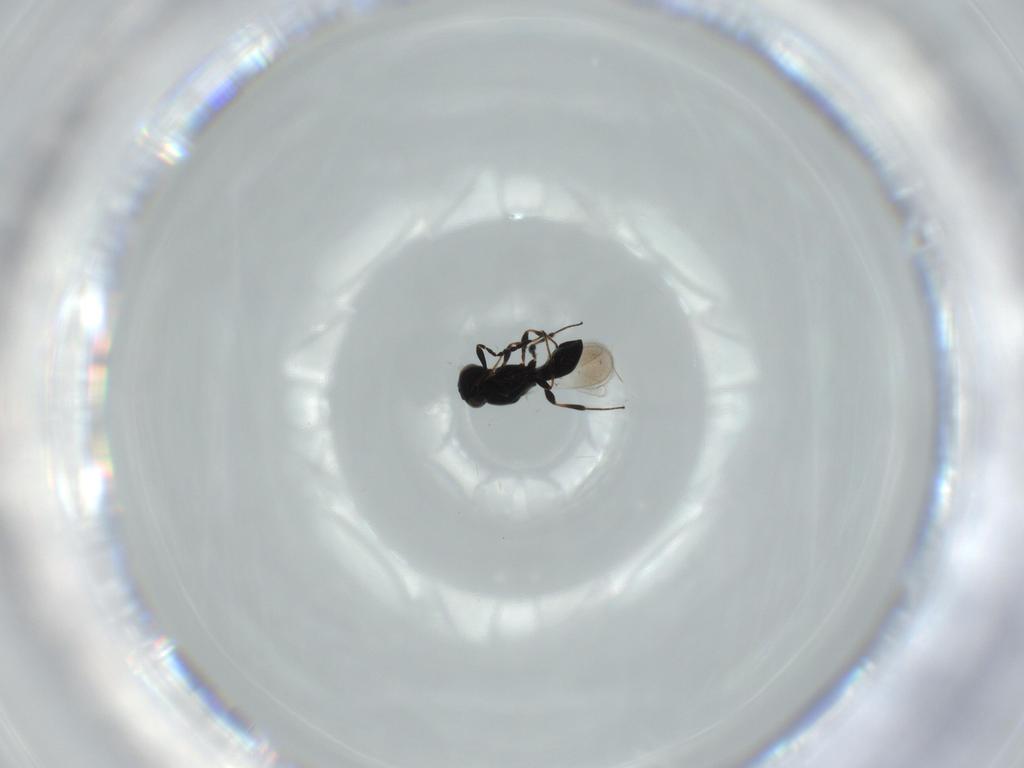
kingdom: Animalia
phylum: Arthropoda
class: Insecta
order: Hymenoptera
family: Platygastridae
